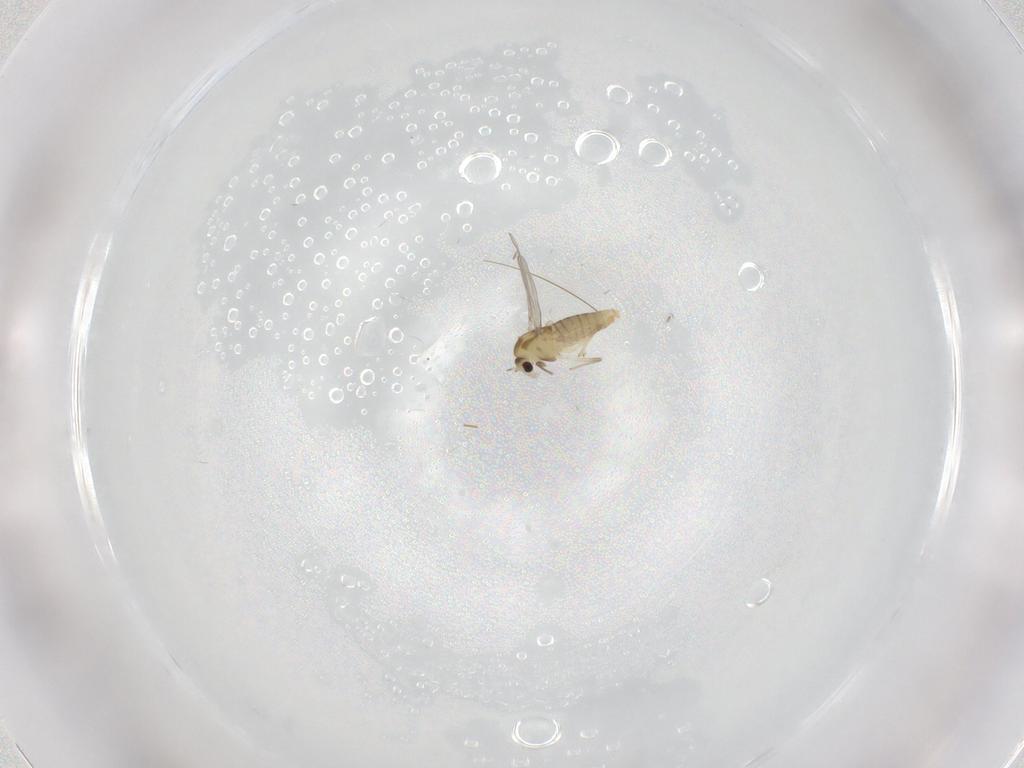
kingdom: Animalia
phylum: Arthropoda
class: Insecta
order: Diptera
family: Chironomidae
